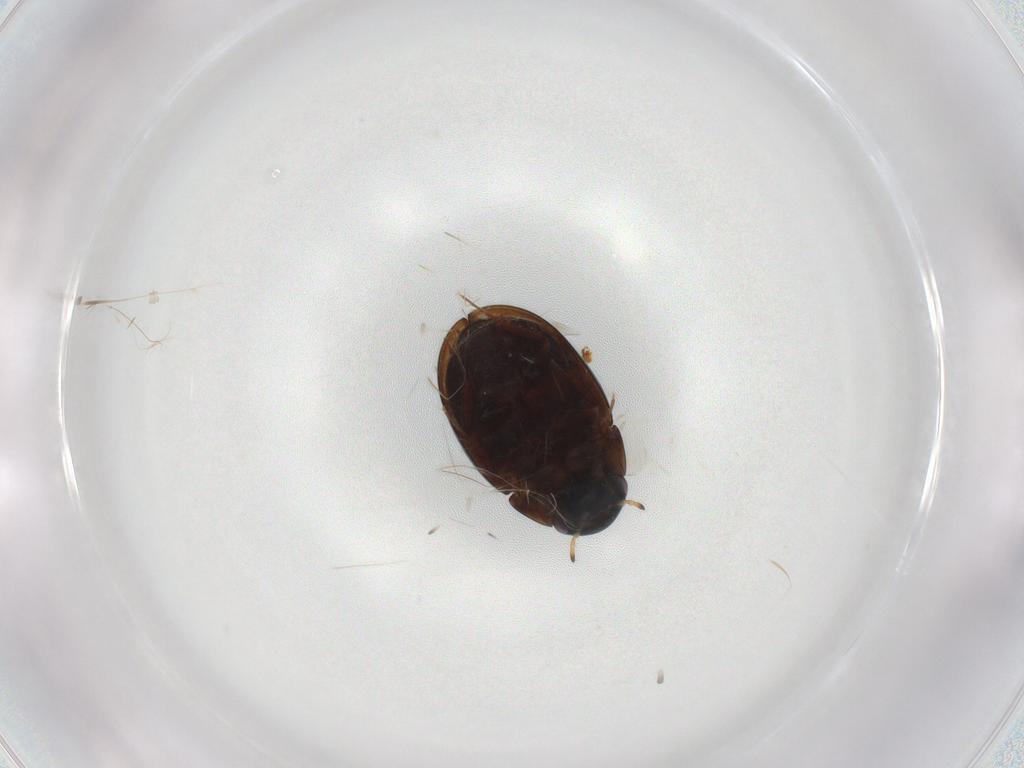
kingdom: Animalia
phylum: Arthropoda
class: Insecta
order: Coleoptera
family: Hydrophilidae
